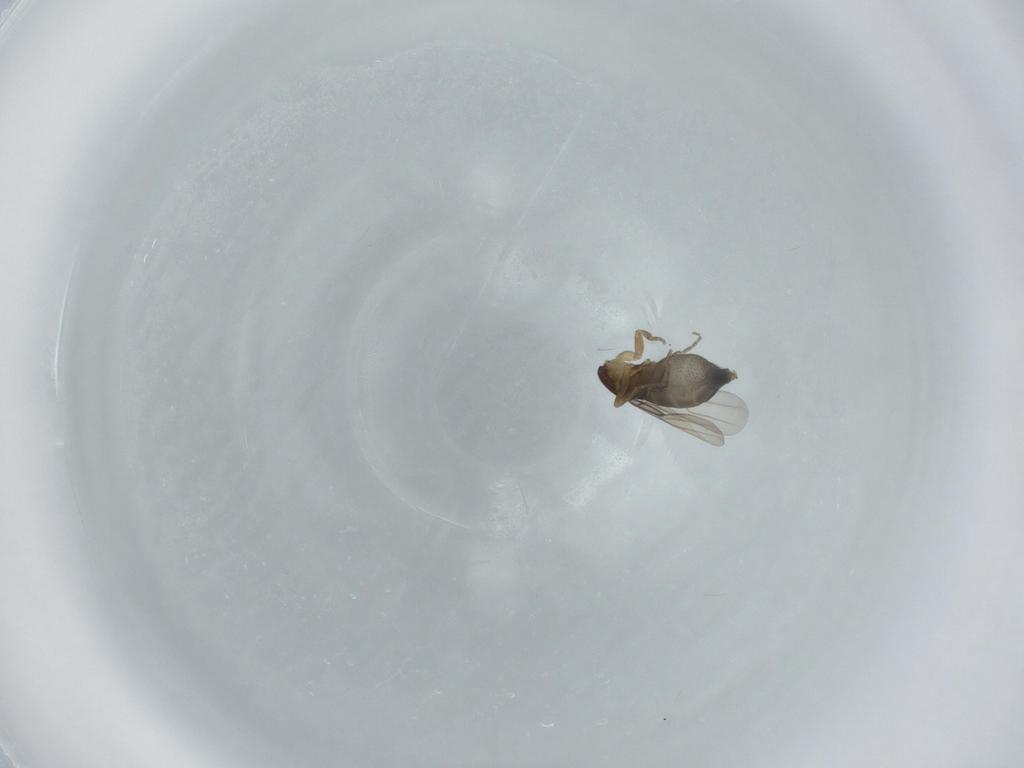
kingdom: Animalia
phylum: Arthropoda
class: Insecta
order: Diptera
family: Phoridae
